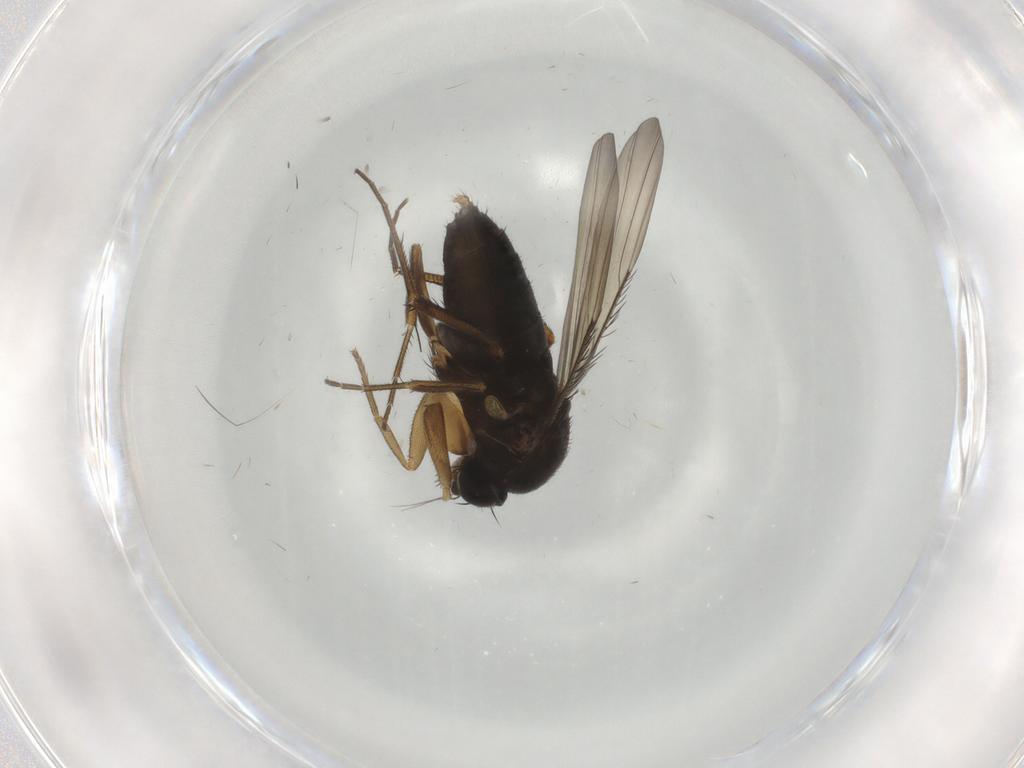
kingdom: Animalia
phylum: Arthropoda
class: Insecta
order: Diptera
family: Phoridae
